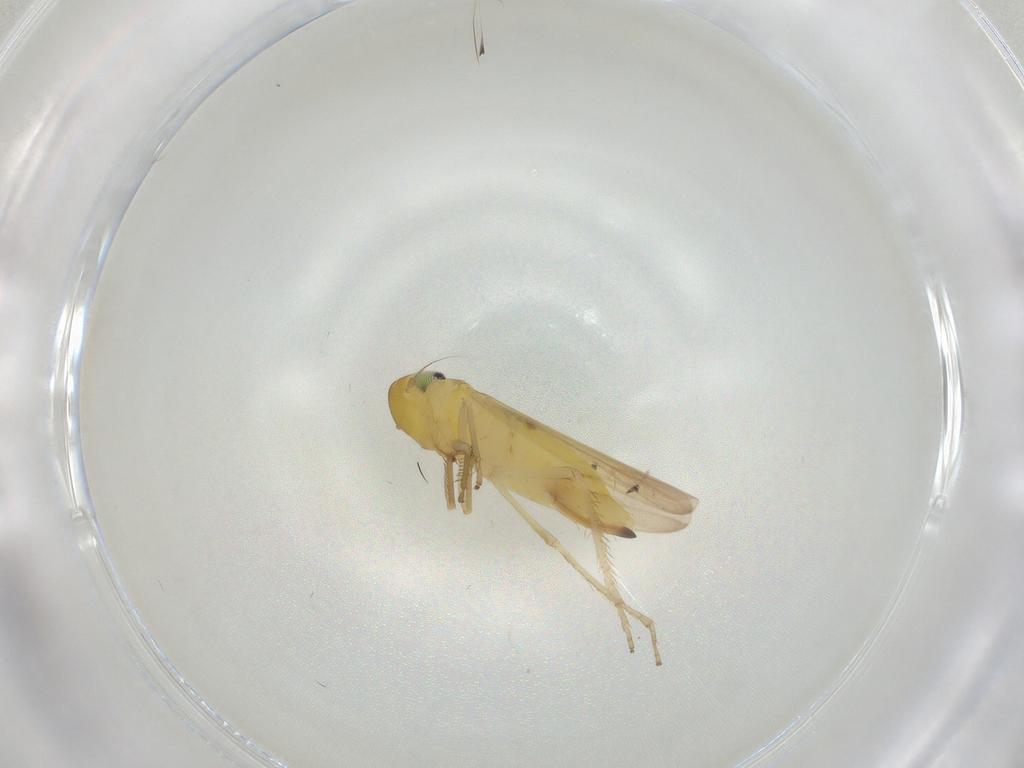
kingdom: Animalia
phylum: Arthropoda
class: Insecta
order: Hemiptera
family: Cicadellidae
